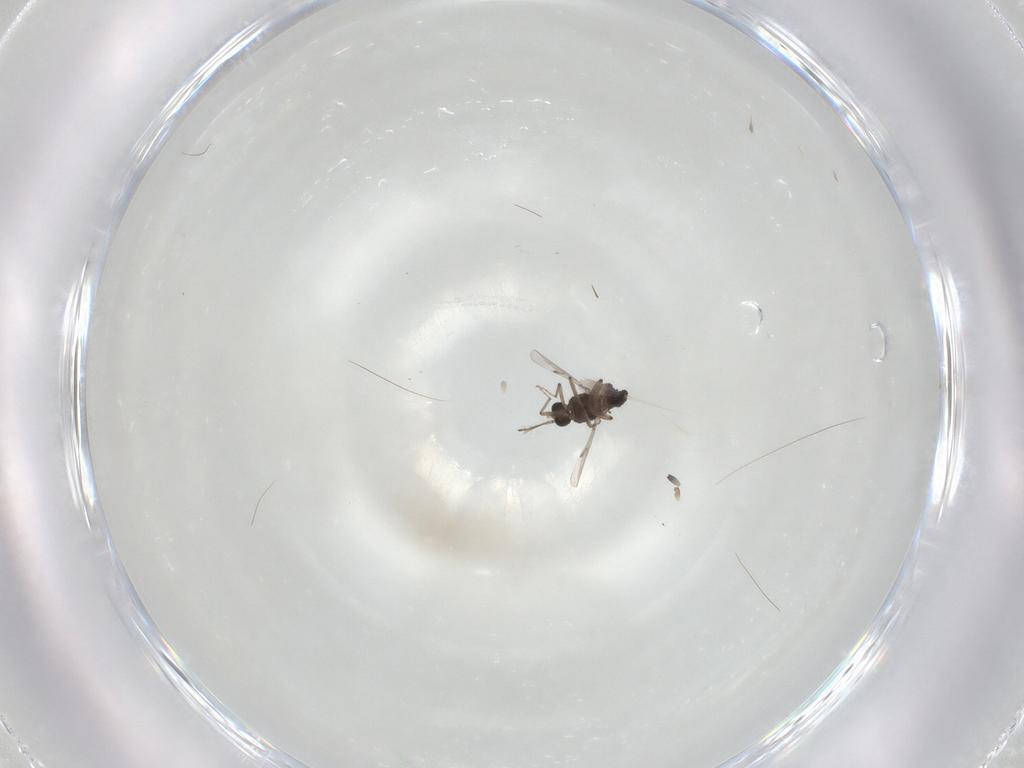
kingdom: Animalia
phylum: Arthropoda
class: Insecta
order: Diptera
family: Ceratopogonidae
